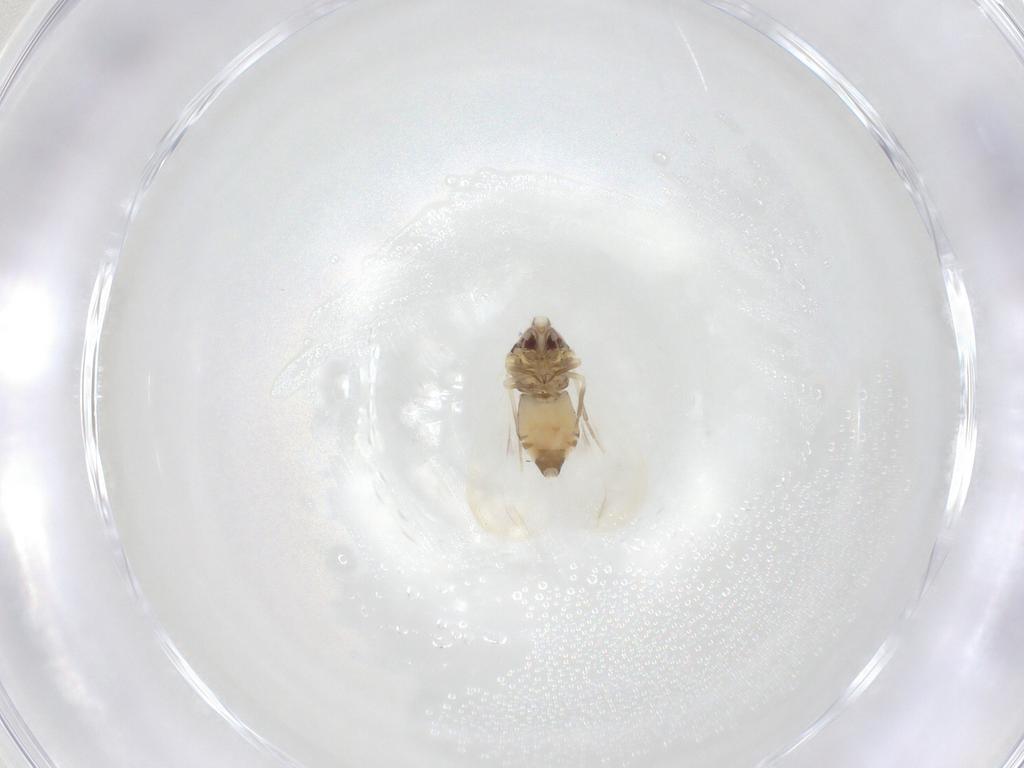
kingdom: Animalia
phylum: Arthropoda
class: Insecta
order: Hemiptera
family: Aleyrodidae
